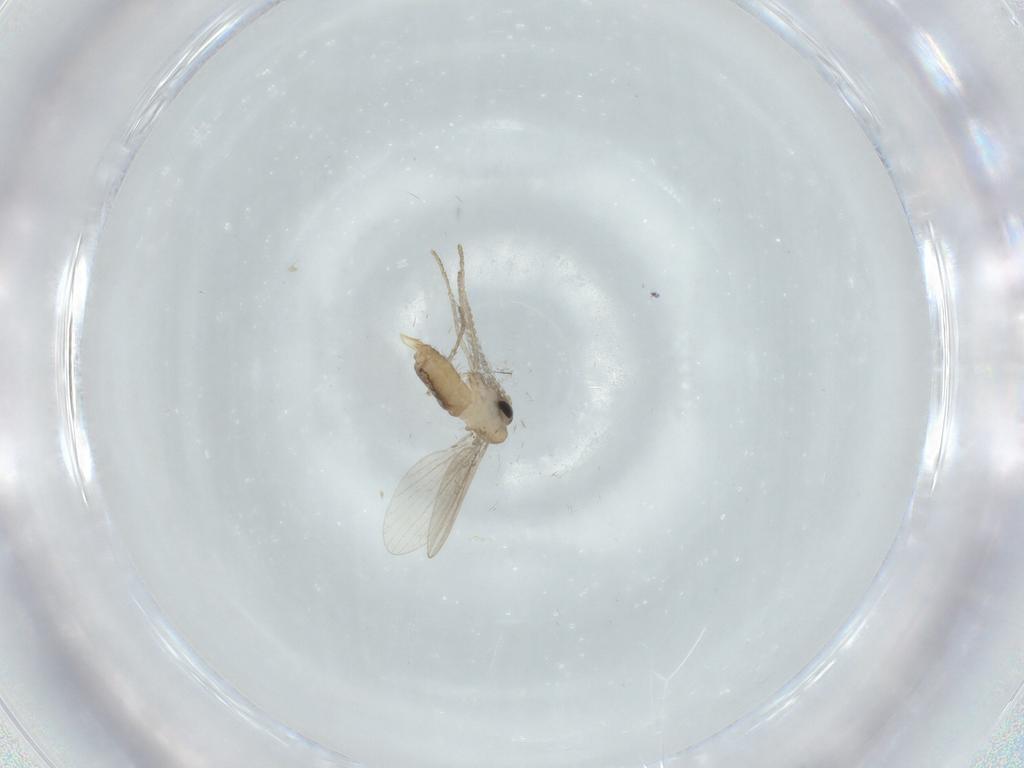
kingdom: Animalia
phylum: Arthropoda
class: Insecta
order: Diptera
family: Psychodidae
